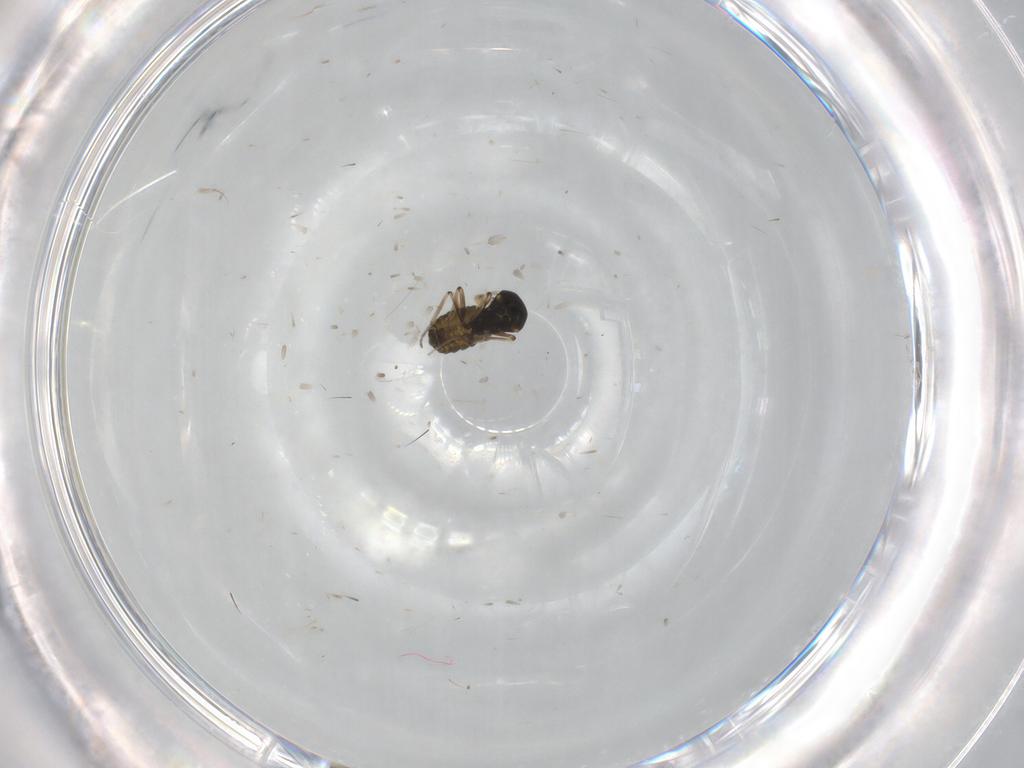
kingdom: Animalia
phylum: Arthropoda
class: Insecta
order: Diptera
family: Ceratopogonidae
